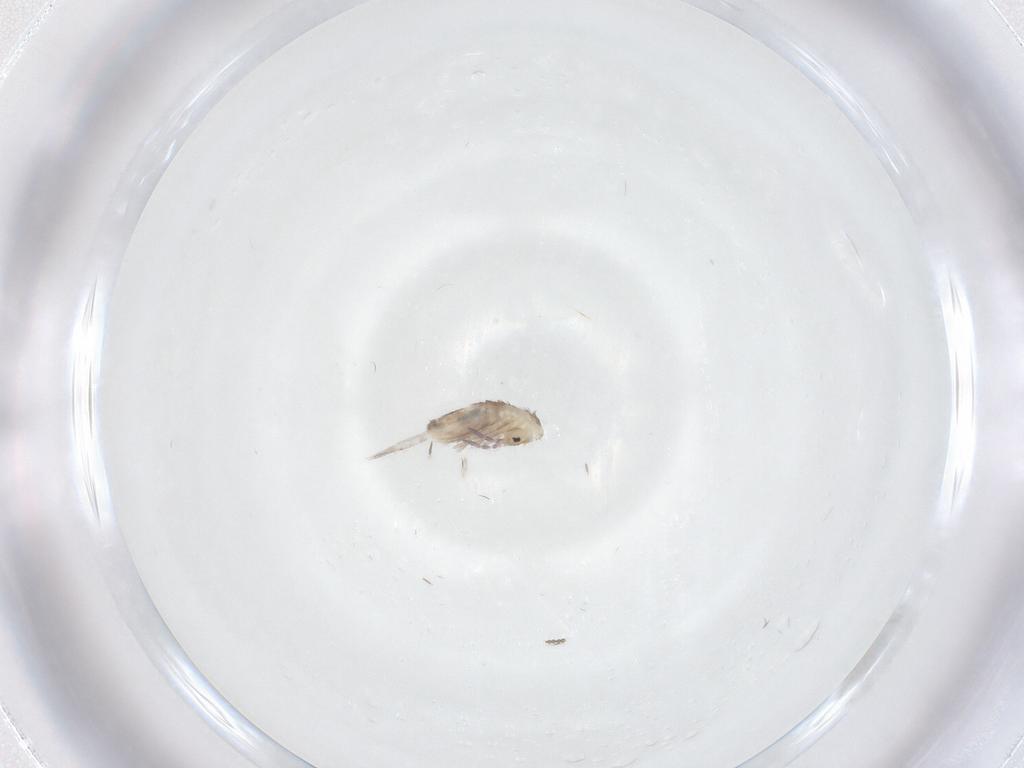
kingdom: Animalia
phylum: Arthropoda
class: Collembola
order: Entomobryomorpha
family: Entomobryidae
